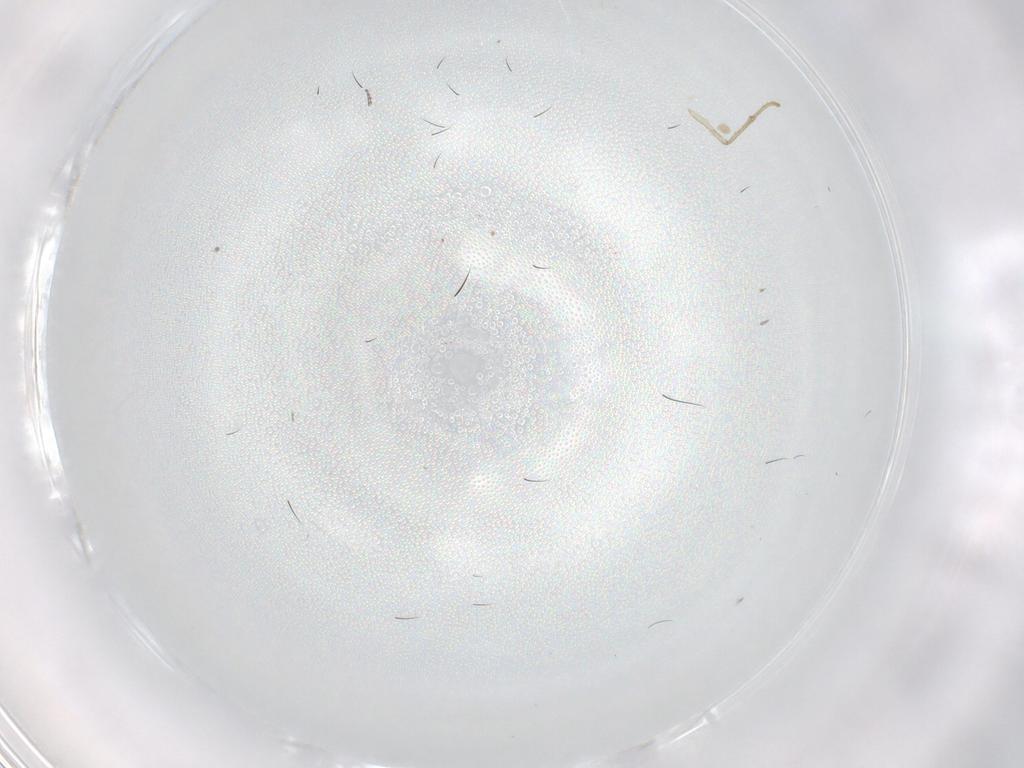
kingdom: Animalia
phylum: Arthropoda
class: Insecta
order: Diptera
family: Psychodidae
